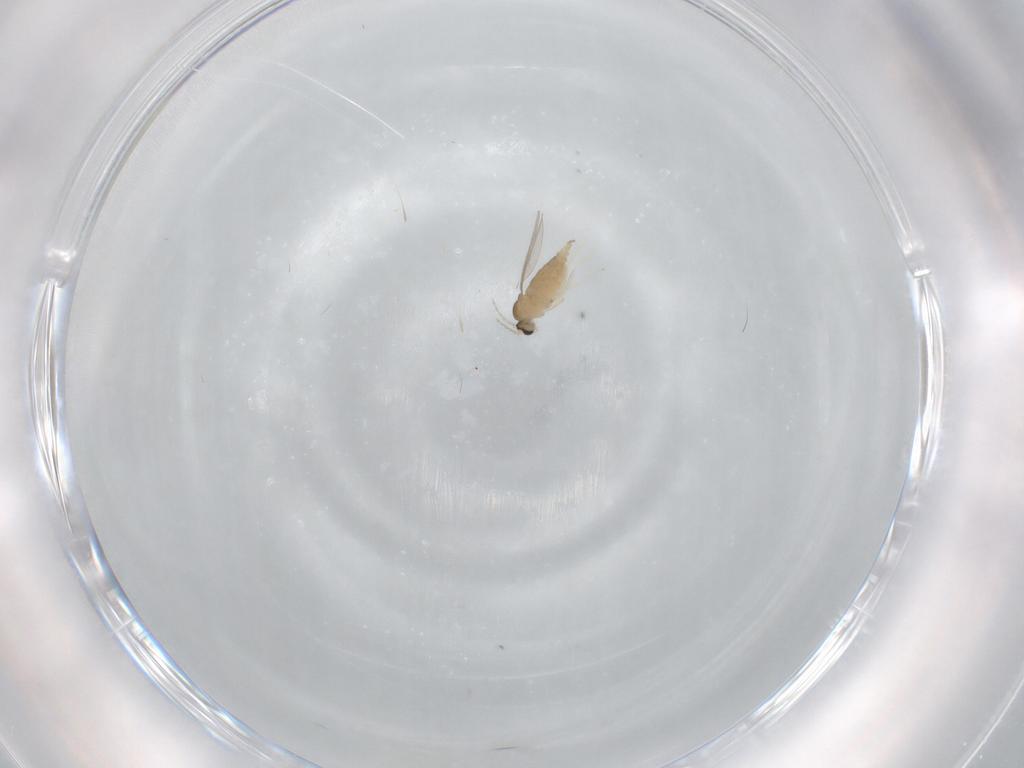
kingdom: Animalia
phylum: Arthropoda
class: Insecta
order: Diptera
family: Cecidomyiidae
